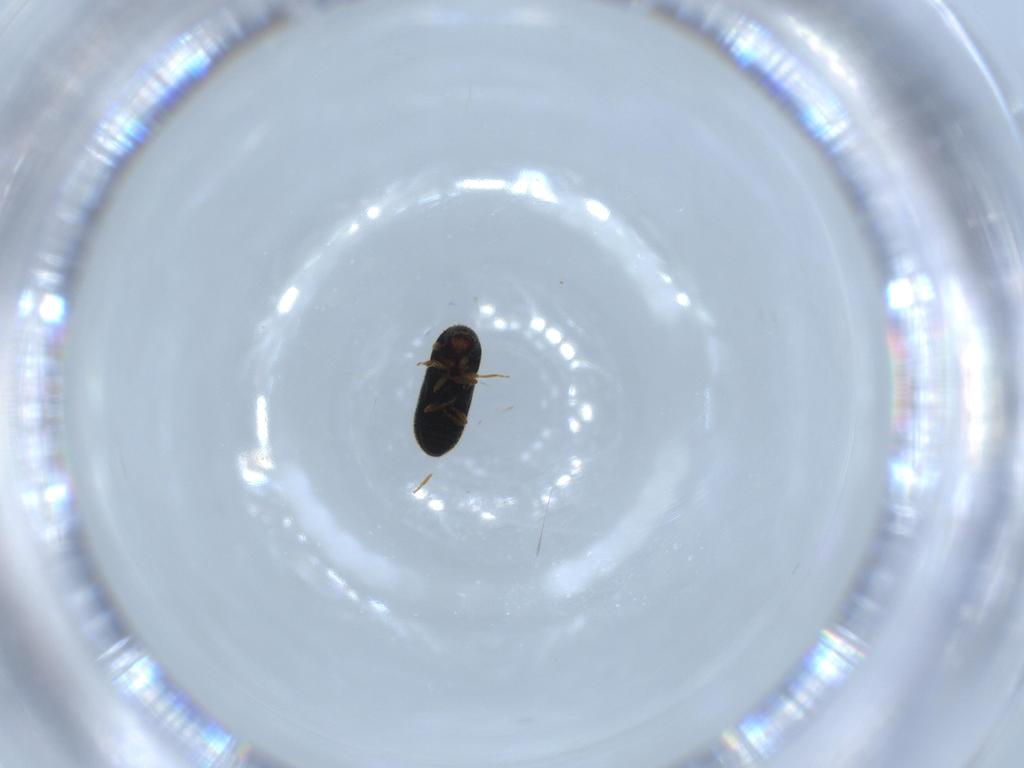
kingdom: Animalia
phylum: Arthropoda
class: Insecta
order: Coleoptera
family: Curculionidae
